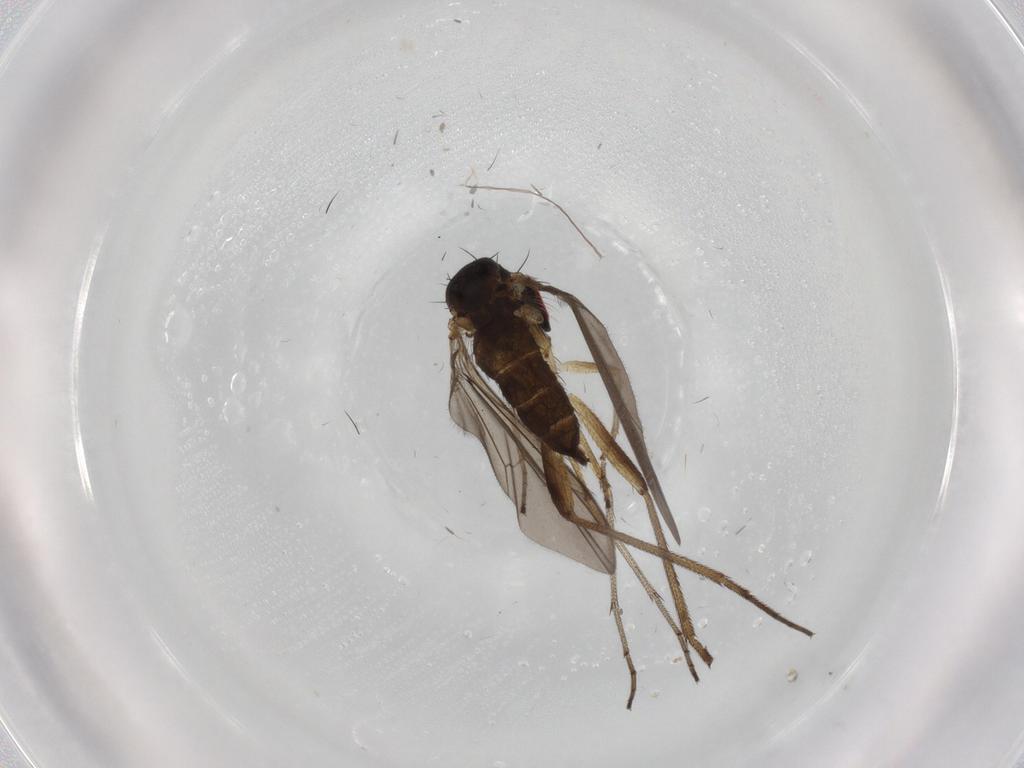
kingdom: Animalia
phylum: Arthropoda
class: Insecta
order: Diptera
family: Dolichopodidae
